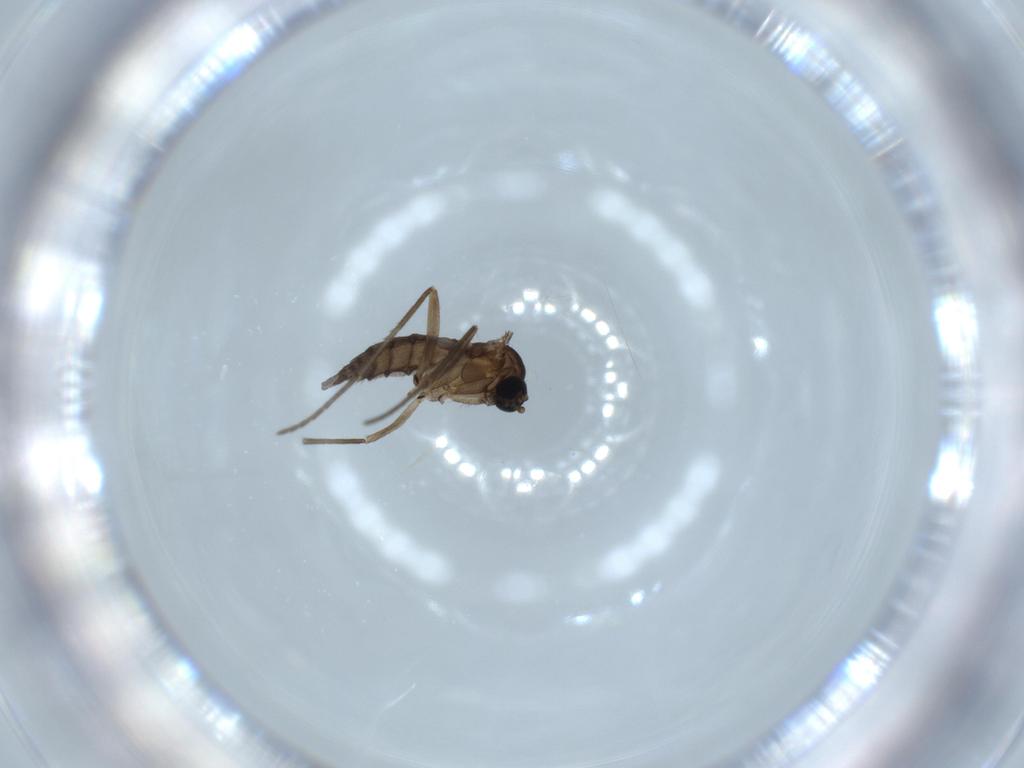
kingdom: Animalia
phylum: Arthropoda
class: Insecta
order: Diptera
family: Sciaridae
